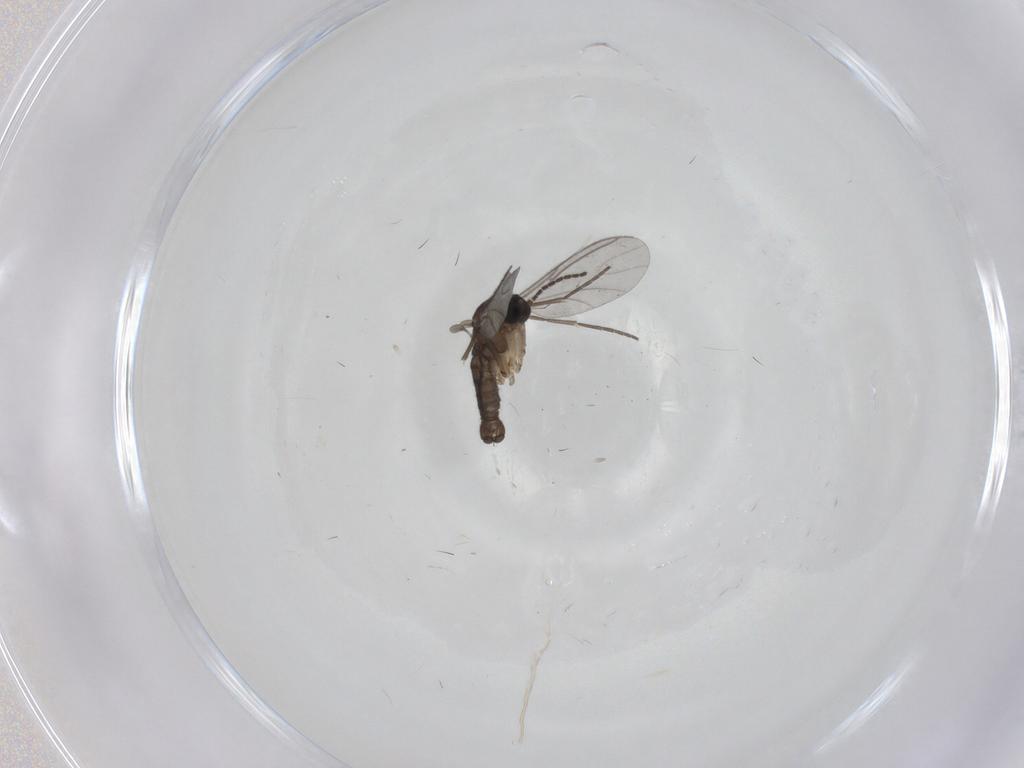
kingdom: Animalia
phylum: Arthropoda
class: Insecta
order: Diptera
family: Sciaridae
